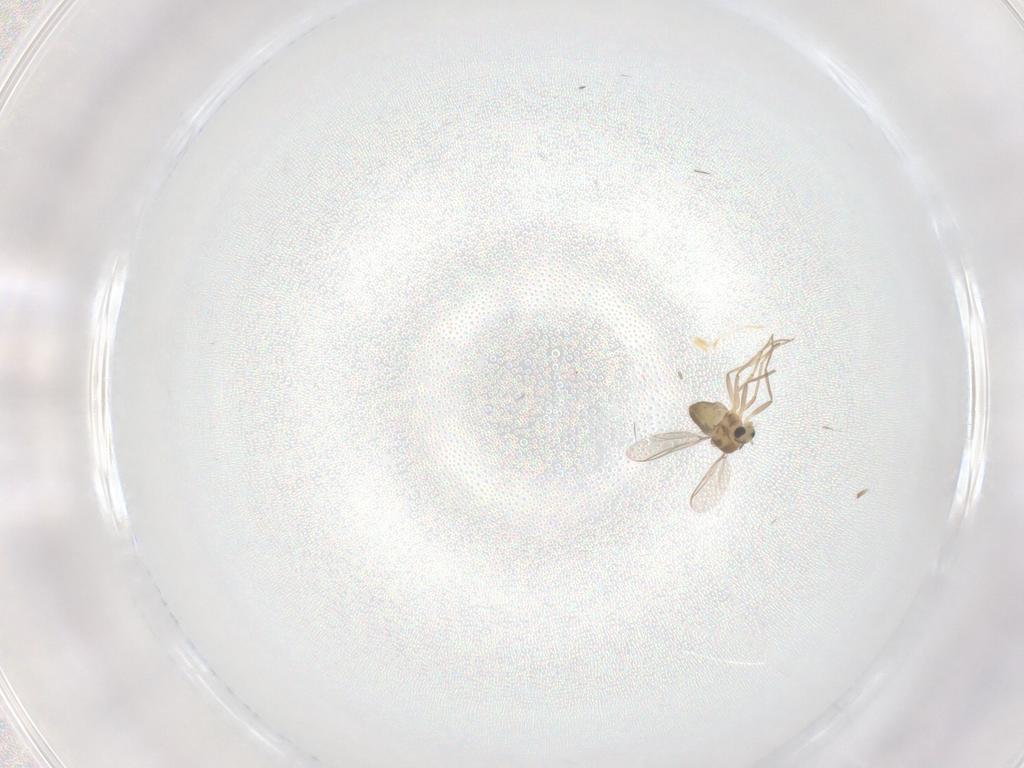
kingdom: Animalia
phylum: Arthropoda
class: Insecta
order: Diptera
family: Chironomidae
